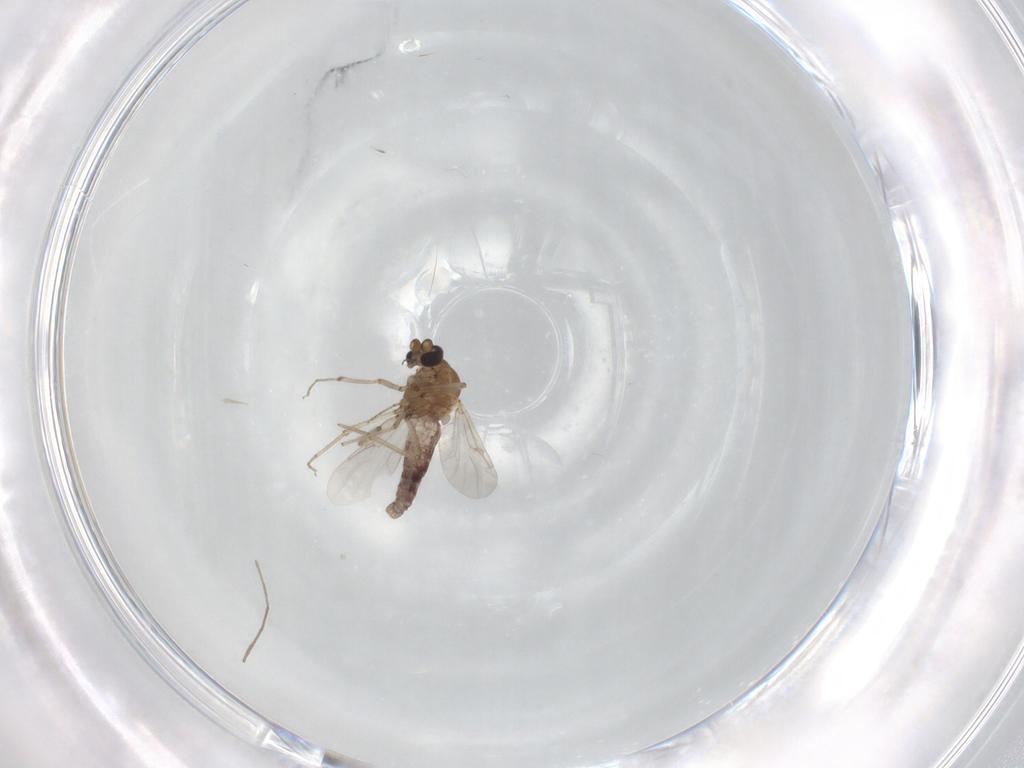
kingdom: Animalia
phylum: Arthropoda
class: Insecta
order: Diptera
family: Ceratopogonidae
